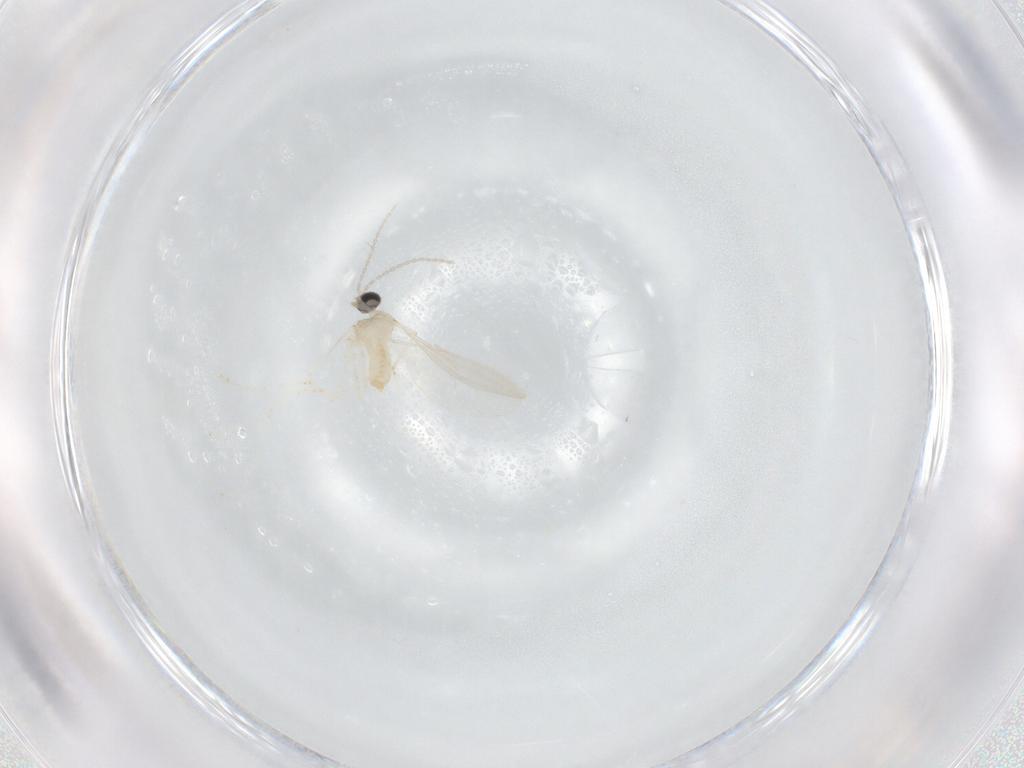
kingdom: Animalia
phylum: Arthropoda
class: Insecta
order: Diptera
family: Cecidomyiidae
